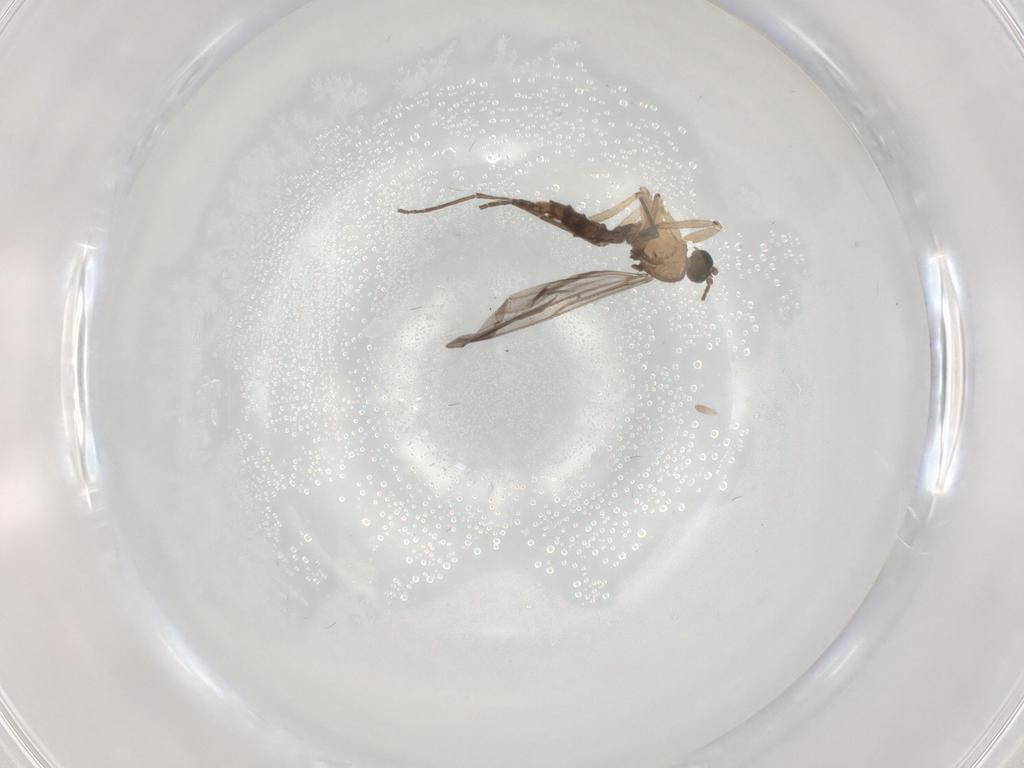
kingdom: Animalia
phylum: Arthropoda
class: Insecta
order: Diptera
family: Sciaridae
